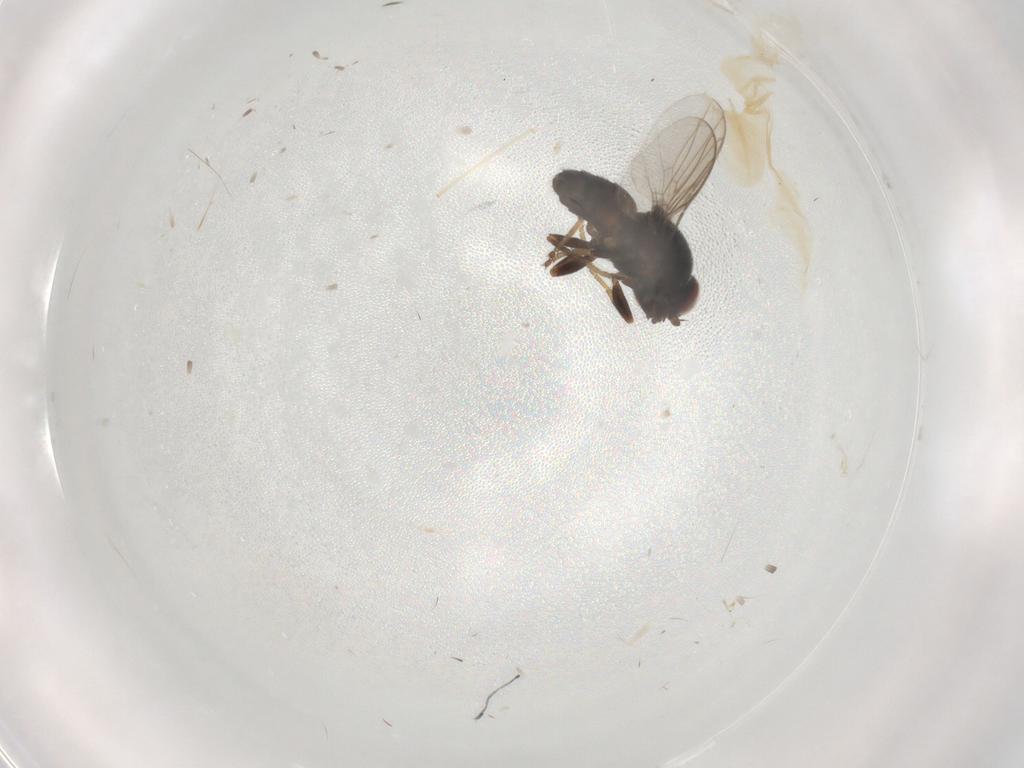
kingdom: Animalia
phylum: Arthropoda
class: Insecta
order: Diptera
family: Chloropidae
